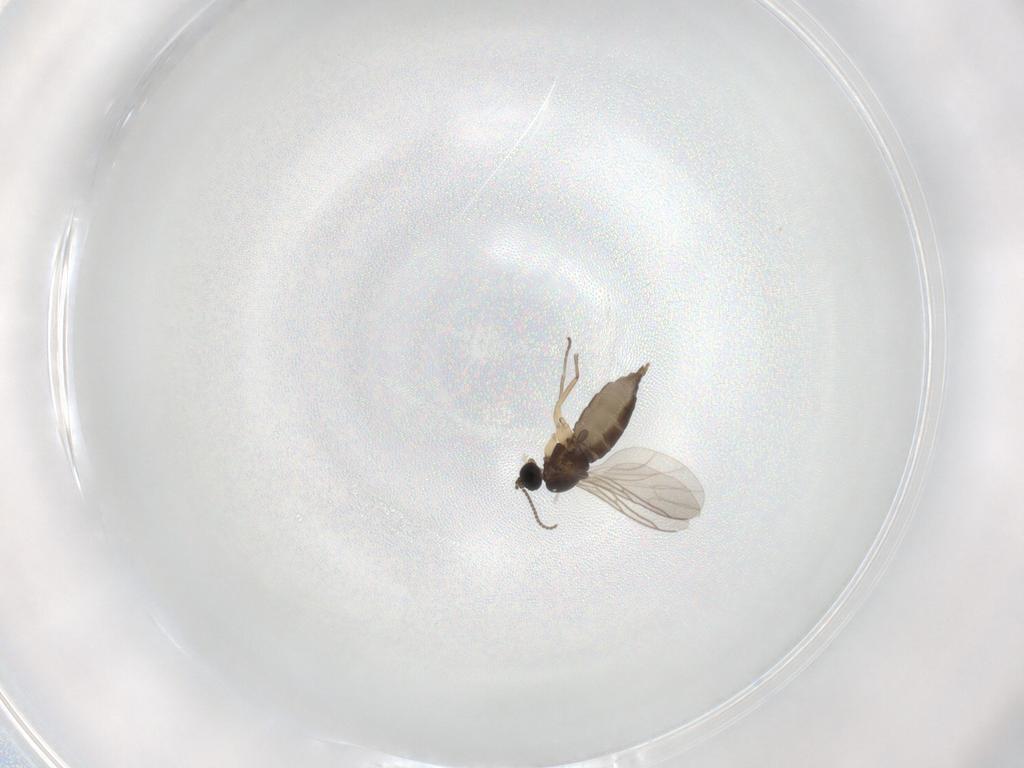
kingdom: Animalia
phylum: Arthropoda
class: Insecta
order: Diptera
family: Sciaridae
